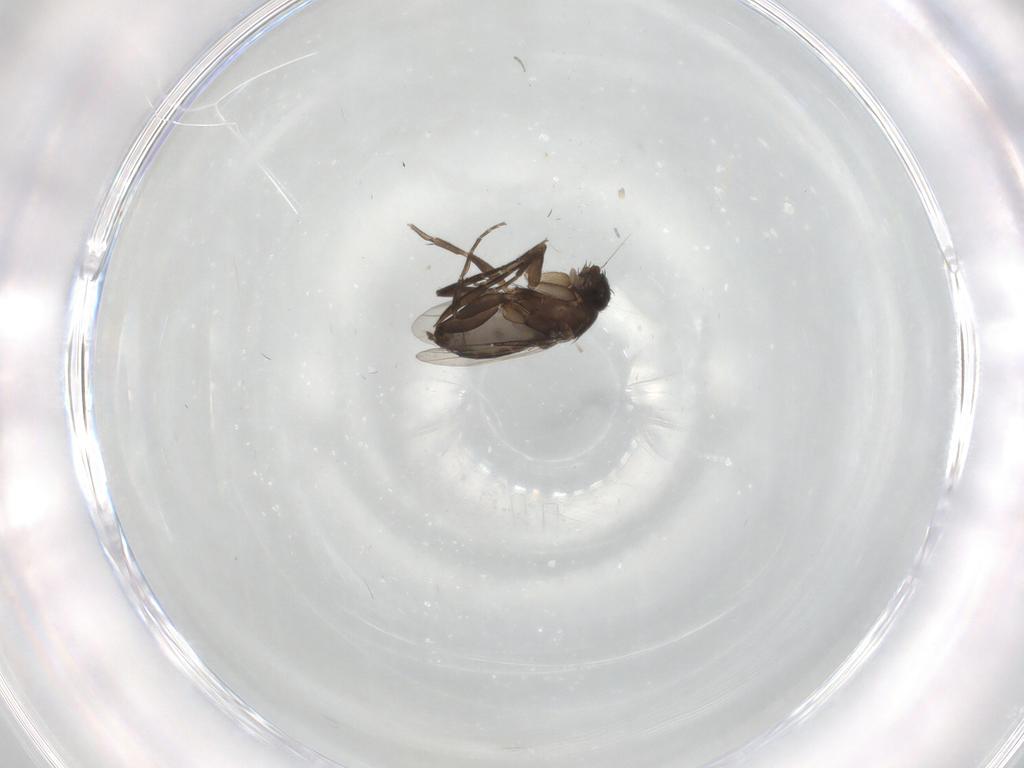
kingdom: Animalia
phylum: Arthropoda
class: Insecta
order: Diptera
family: Phoridae
